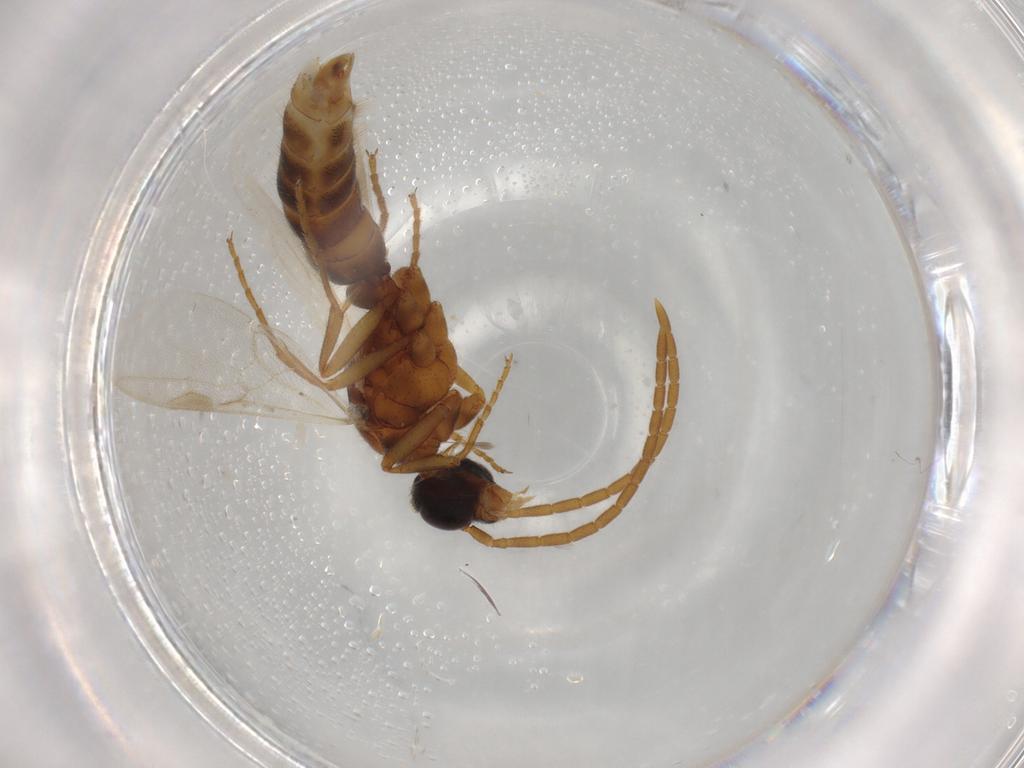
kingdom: Animalia
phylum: Arthropoda
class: Insecta
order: Hymenoptera
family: Formicidae
